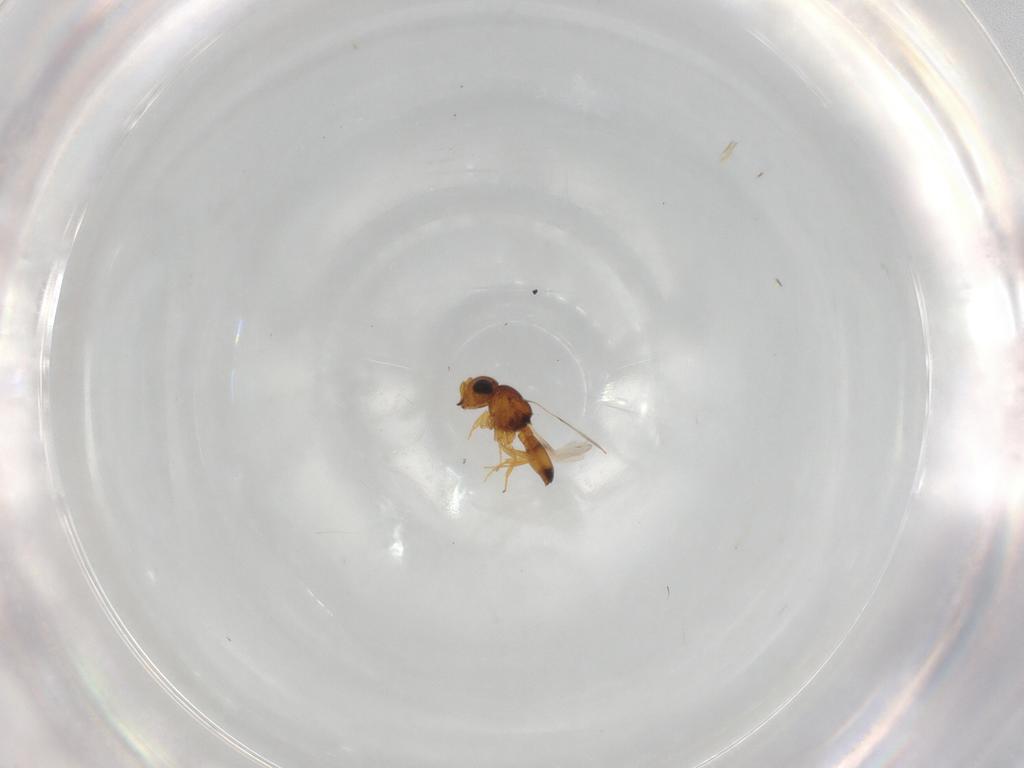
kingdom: Animalia
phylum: Arthropoda
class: Insecta
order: Hymenoptera
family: Scelionidae
